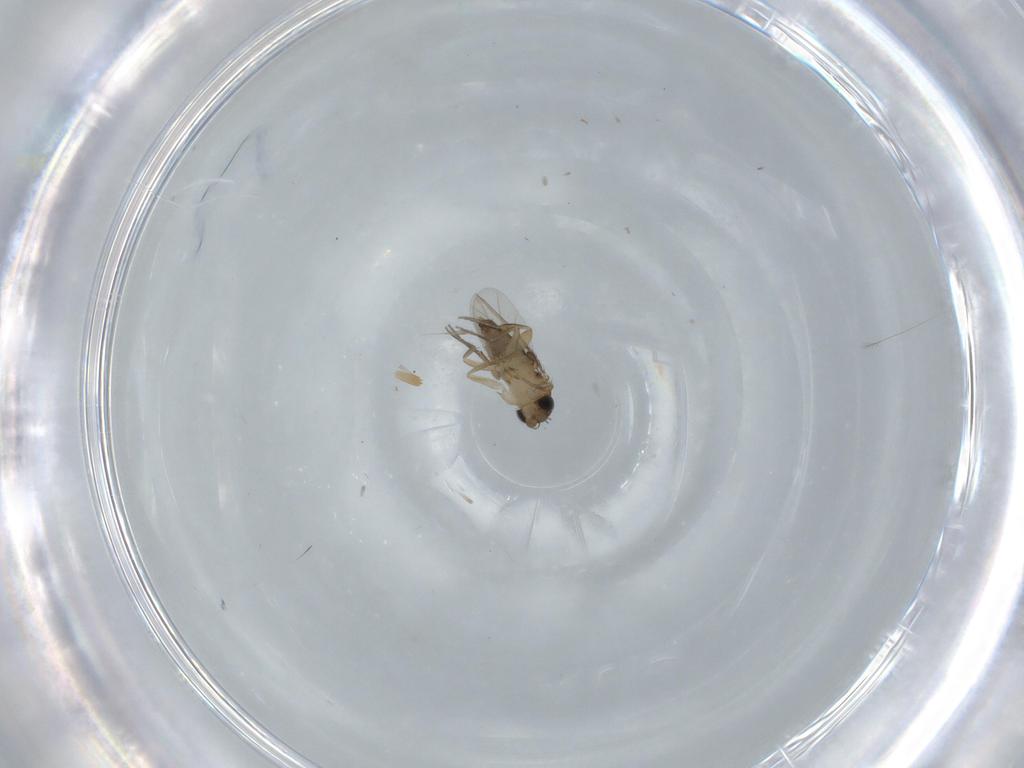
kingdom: Animalia
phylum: Arthropoda
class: Insecta
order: Diptera
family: Phoridae
